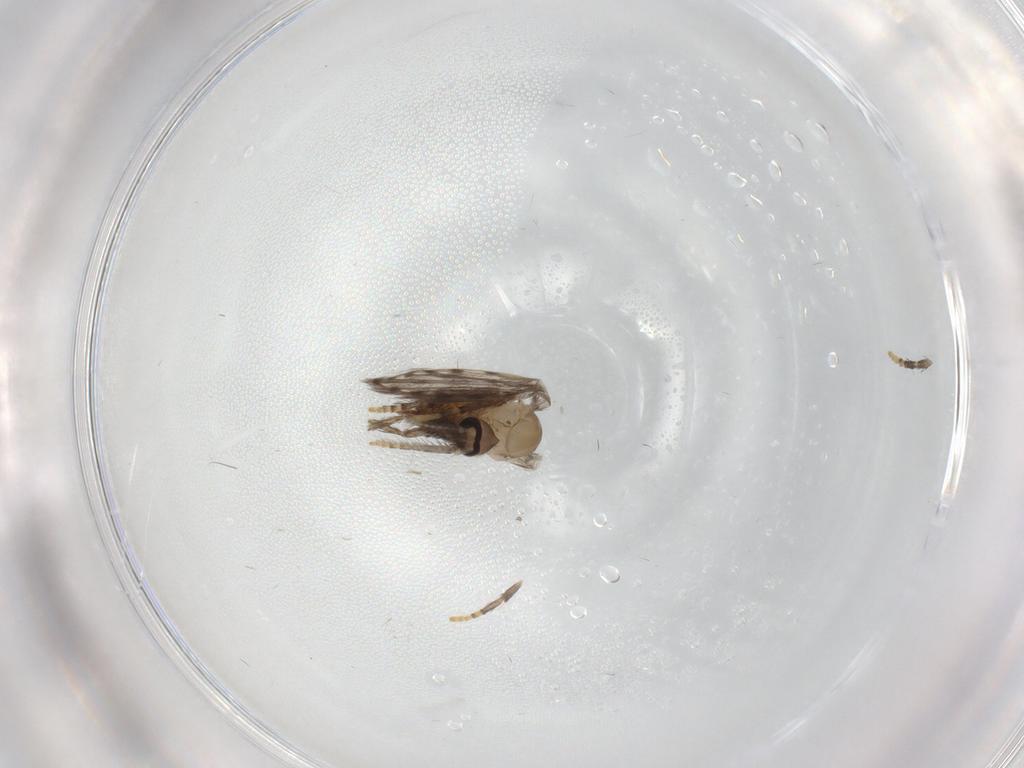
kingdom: Animalia
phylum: Arthropoda
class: Insecta
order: Diptera
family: Psychodidae
